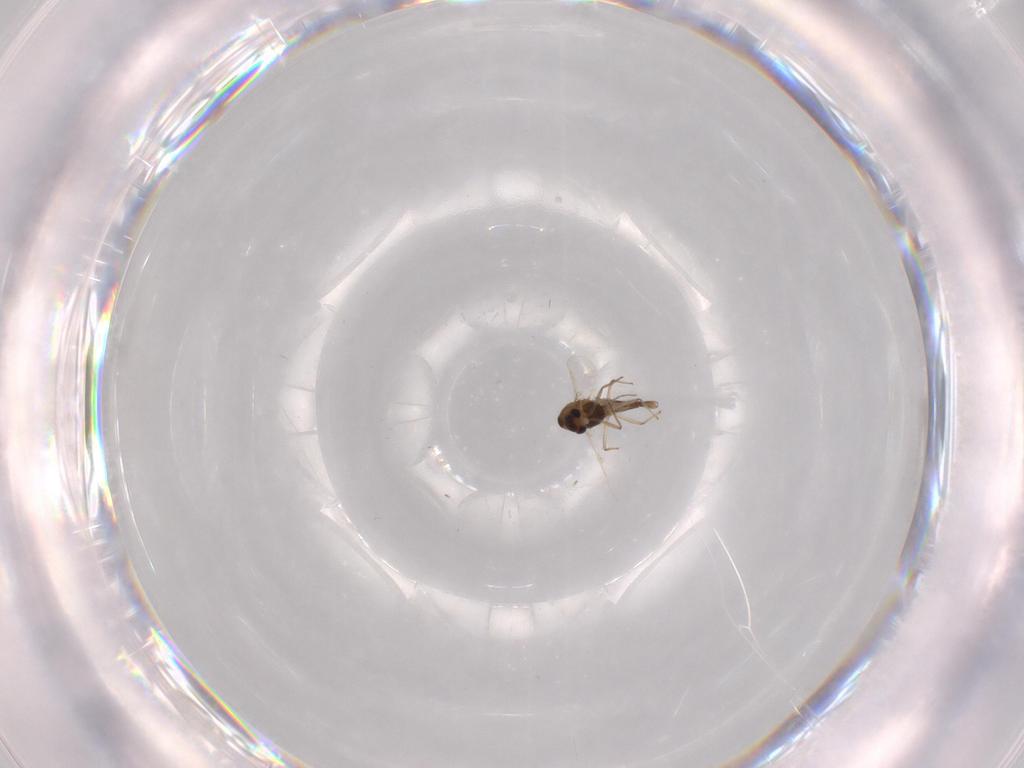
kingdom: Animalia
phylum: Arthropoda
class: Insecta
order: Diptera
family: Chironomidae
